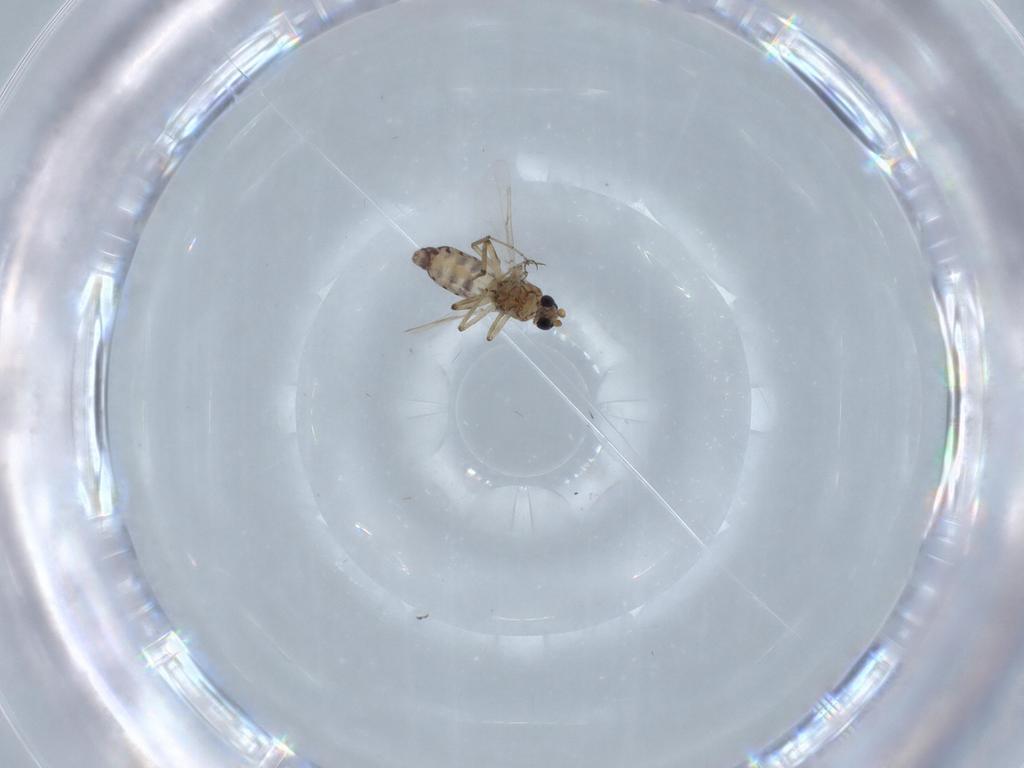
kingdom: Animalia
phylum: Arthropoda
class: Insecta
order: Diptera
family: Ceratopogonidae
